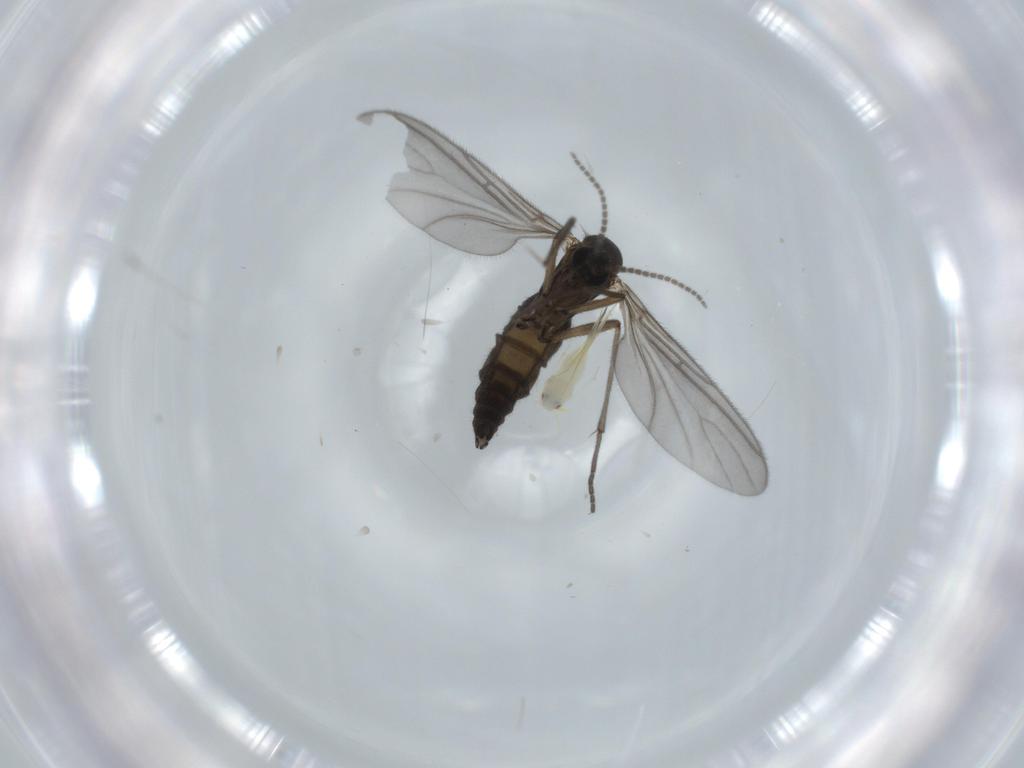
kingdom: Animalia
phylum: Arthropoda
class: Insecta
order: Diptera
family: Sciaridae
